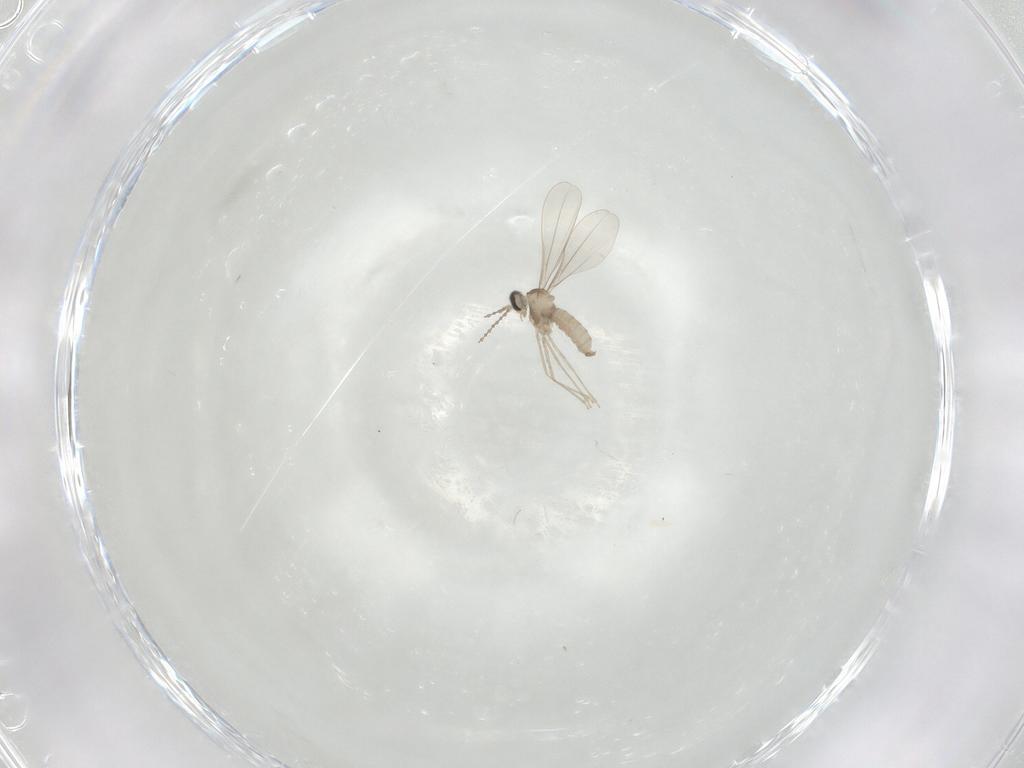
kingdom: Animalia
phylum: Arthropoda
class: Insecta
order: Diptera
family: Cecidomyiidae
